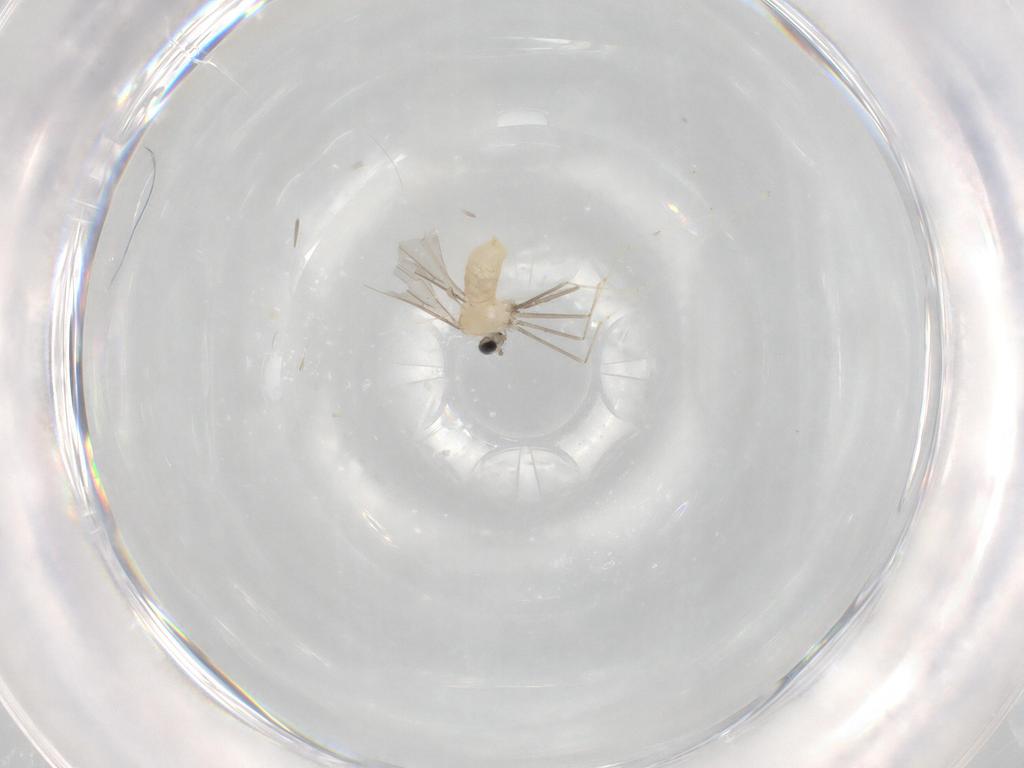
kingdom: Animalia
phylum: Arthropoda
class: Insecta
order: Diptera
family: Cecidomyiidae
